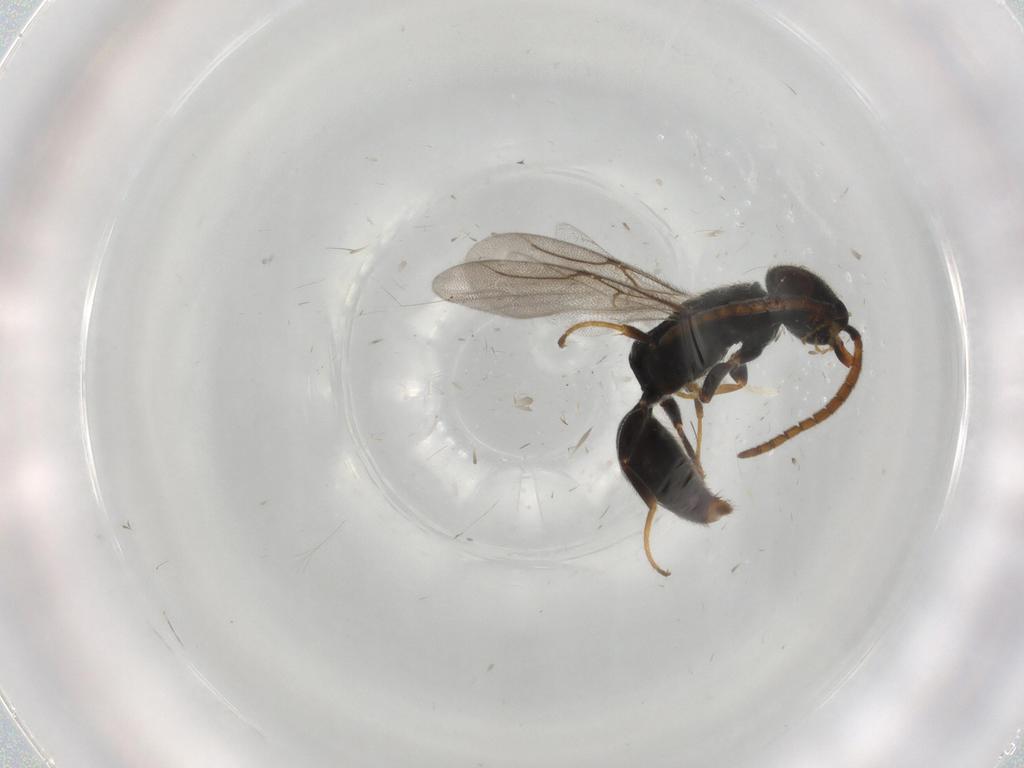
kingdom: Animalia
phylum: Arthropoda
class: Insecta
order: Hymenoptera
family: Bethylidae
